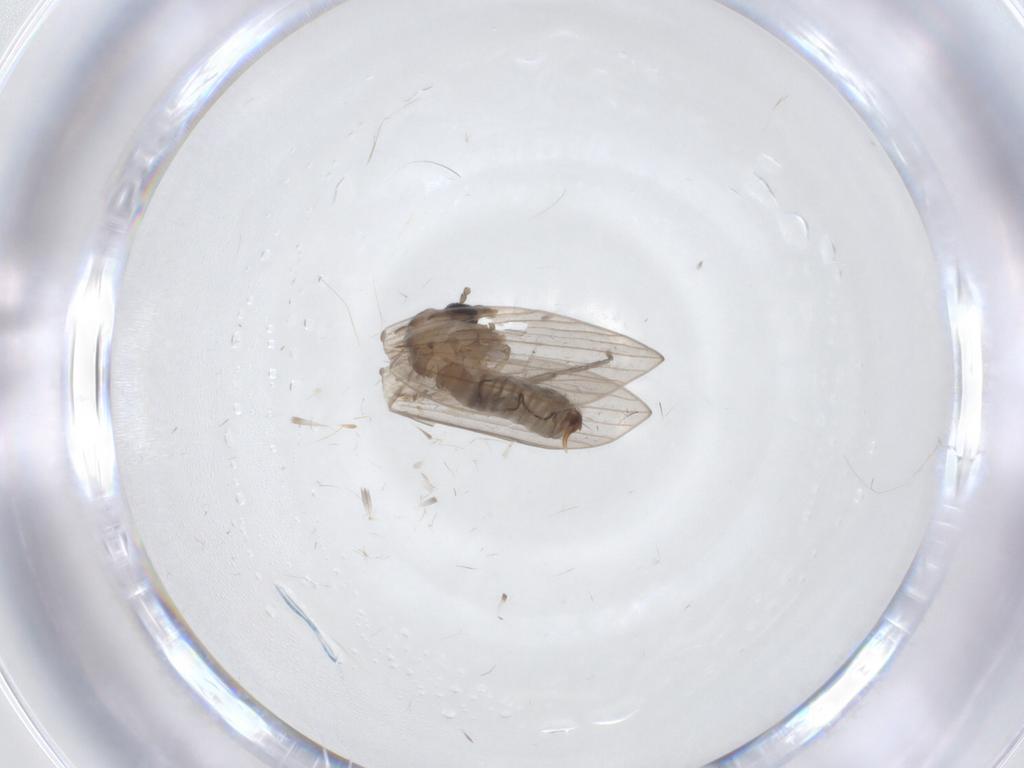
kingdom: Animalia
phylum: Arthropoda
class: Insecta
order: Diptera
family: Psychodidae
